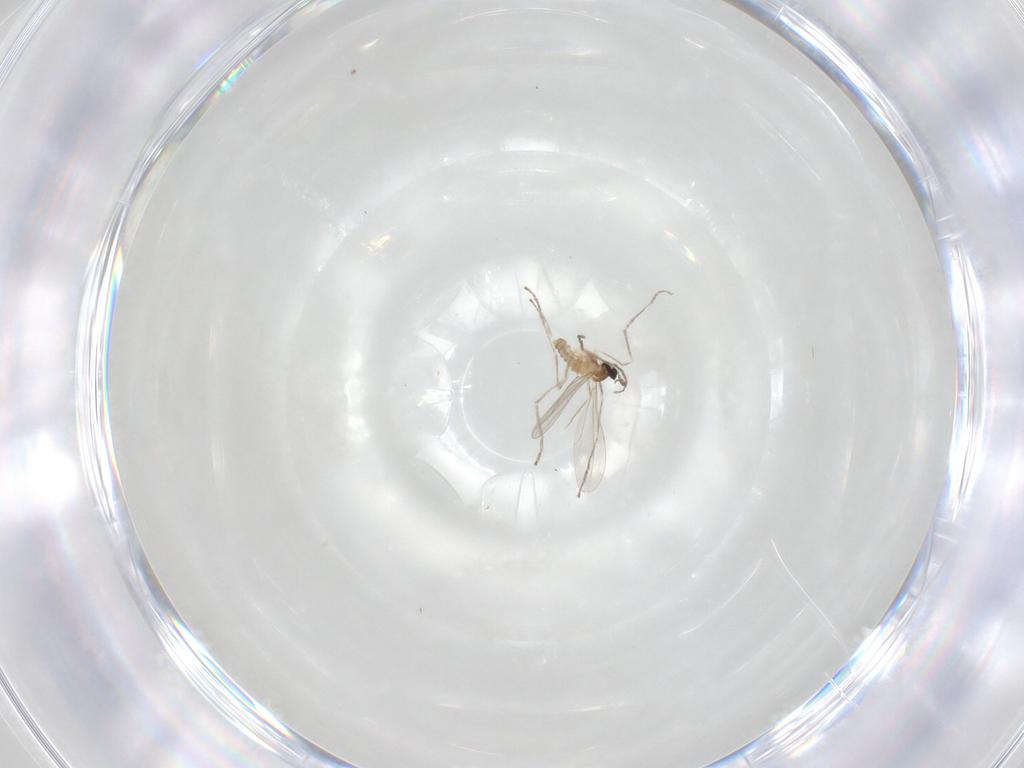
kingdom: Animalia
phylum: Arthropoda
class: Insecta
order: Diptera
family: Cecidomyiidae
